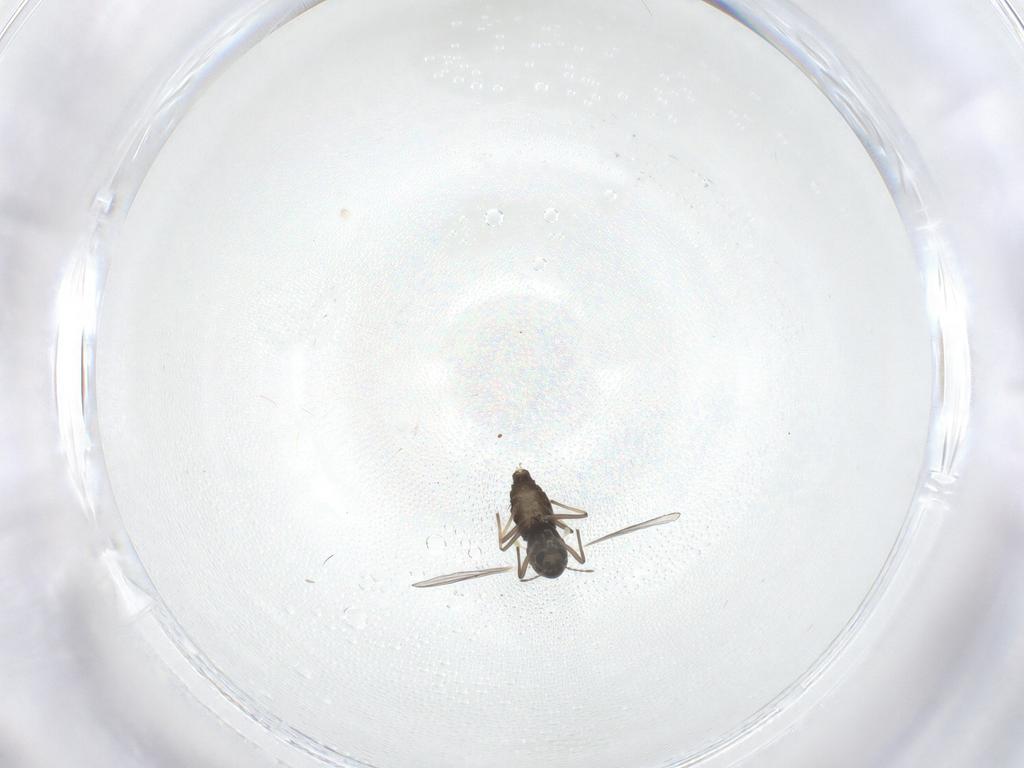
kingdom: Animalia
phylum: Arthropoda
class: Insecta
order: Diptera
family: Chironomidae
